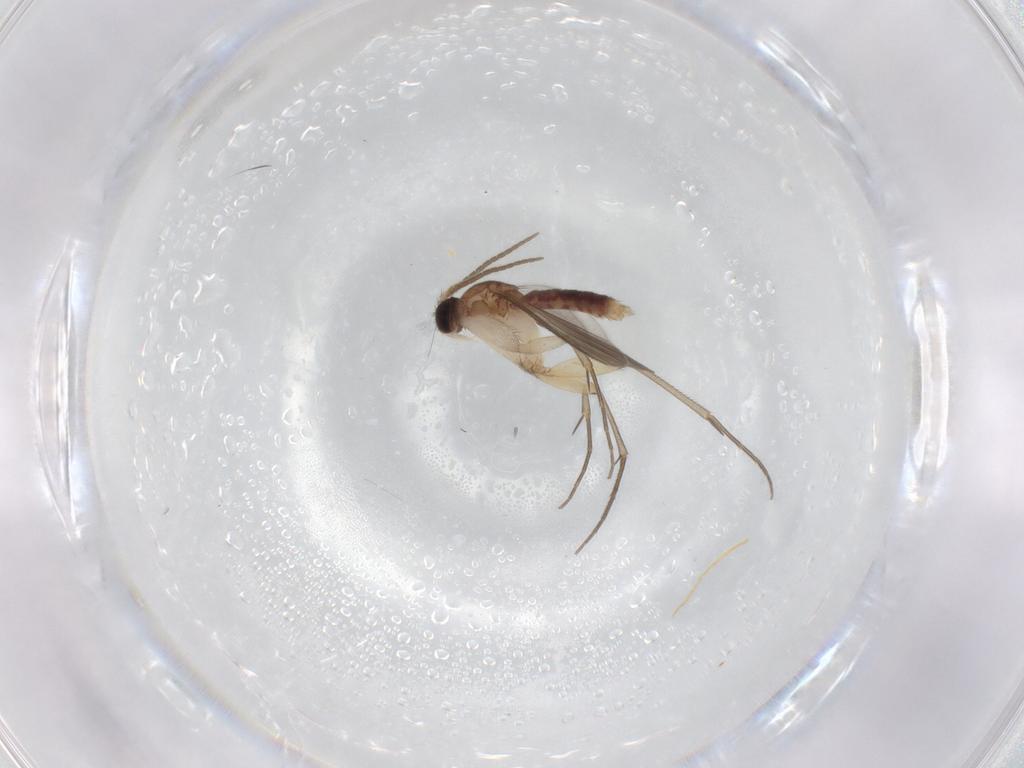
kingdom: Animalia
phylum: Arthropoda
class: Insecta
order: Diptera
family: Mycetophilidae
